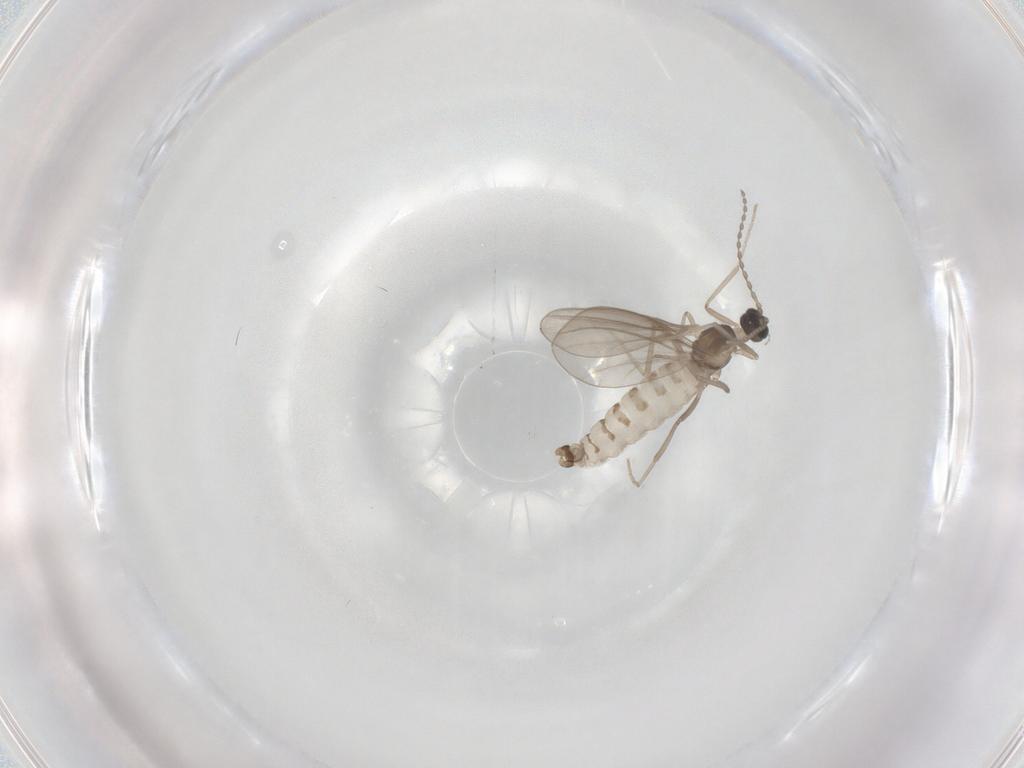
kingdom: Animalia
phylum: Arthropoda
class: Insecta
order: Diptera
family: Cecidomyiidae
